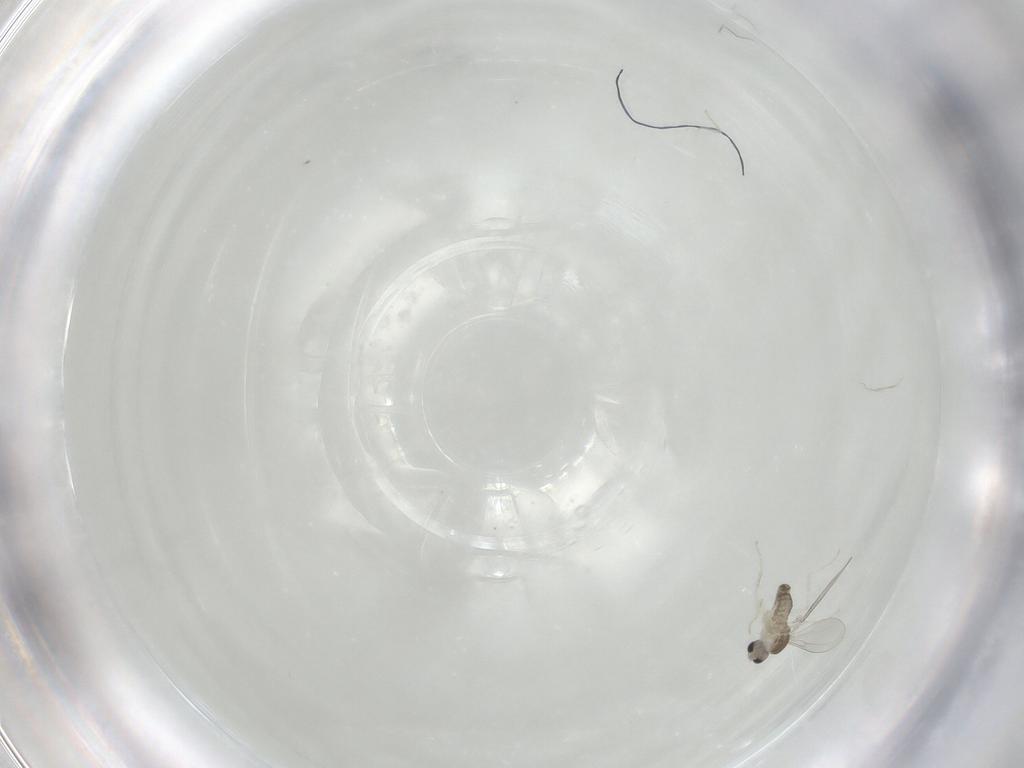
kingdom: Animalia
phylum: Arthropoda
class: Insecta
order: Diptera
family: Cecidomyiidae
